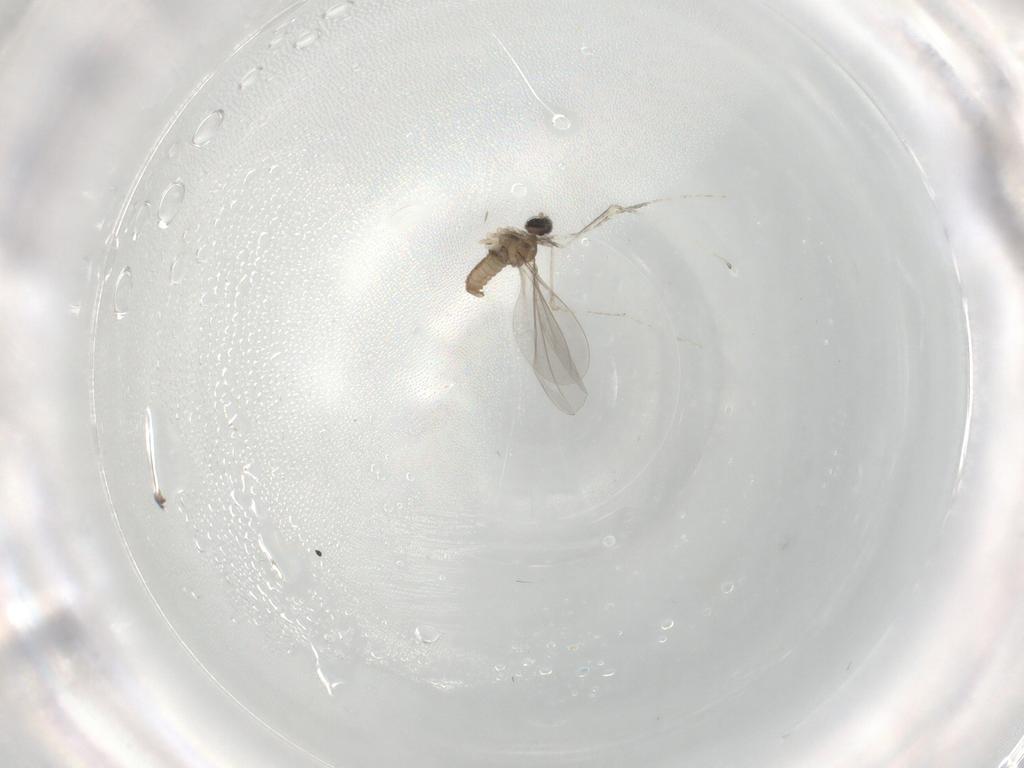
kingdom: Animalia
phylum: Arthropoda
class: Insecta
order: Diptera
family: Cecidomyiidae
